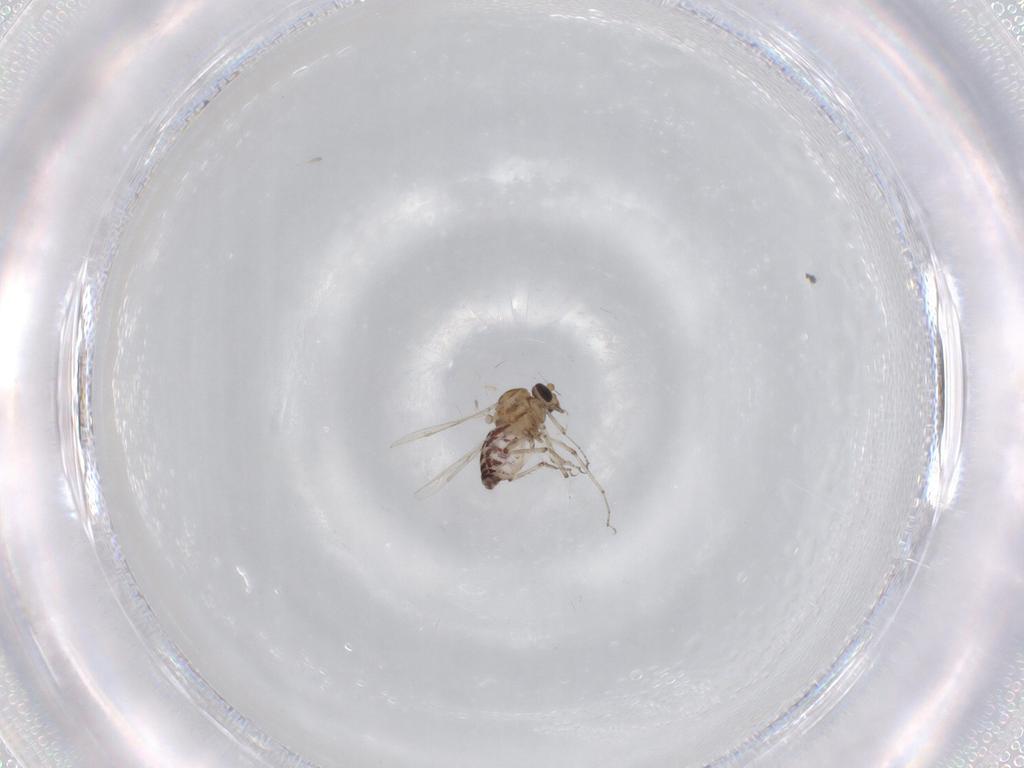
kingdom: Animalia
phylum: Arthropoda
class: Insecta
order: Diptera
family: Ceratopogonidae
